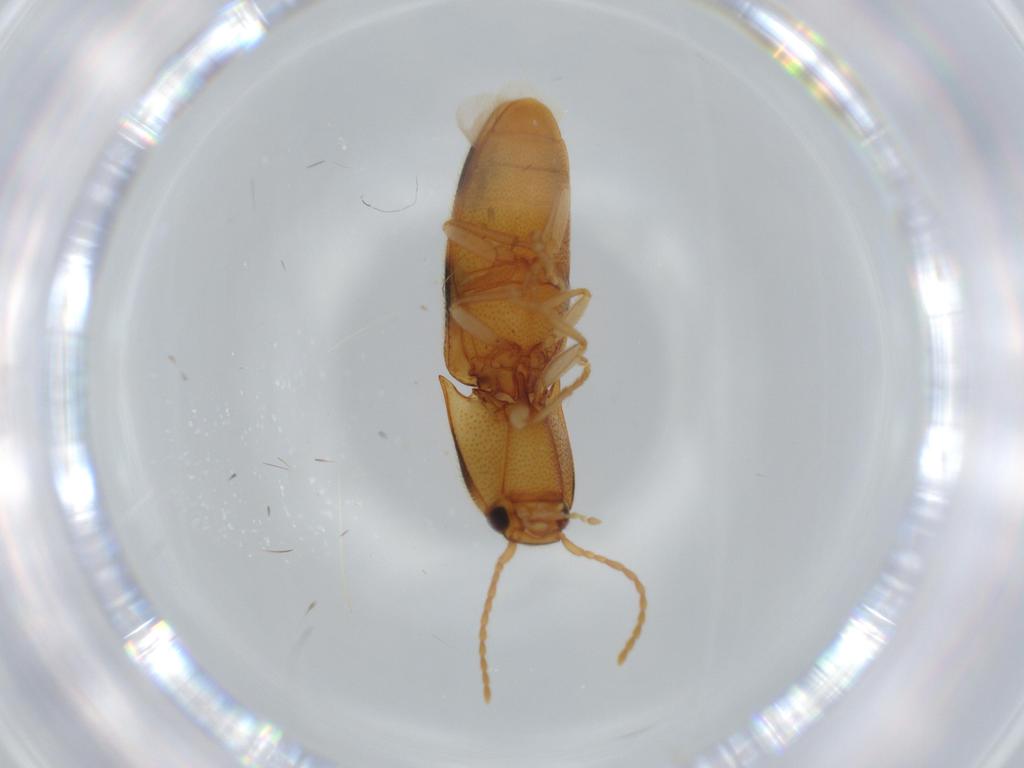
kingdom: Animalia
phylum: Arthropoda
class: Insecta
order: Coleoptera
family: Elateridae
